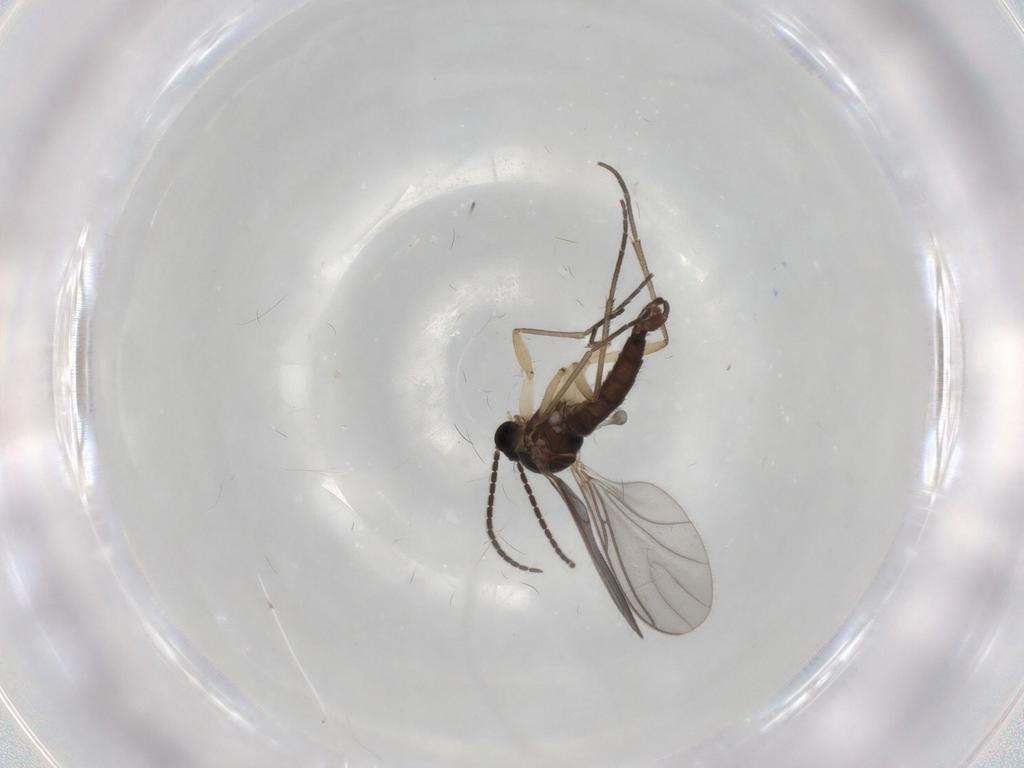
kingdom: Animalia
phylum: Arthropoda
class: Insecta
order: Diptera
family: Sciaridae
